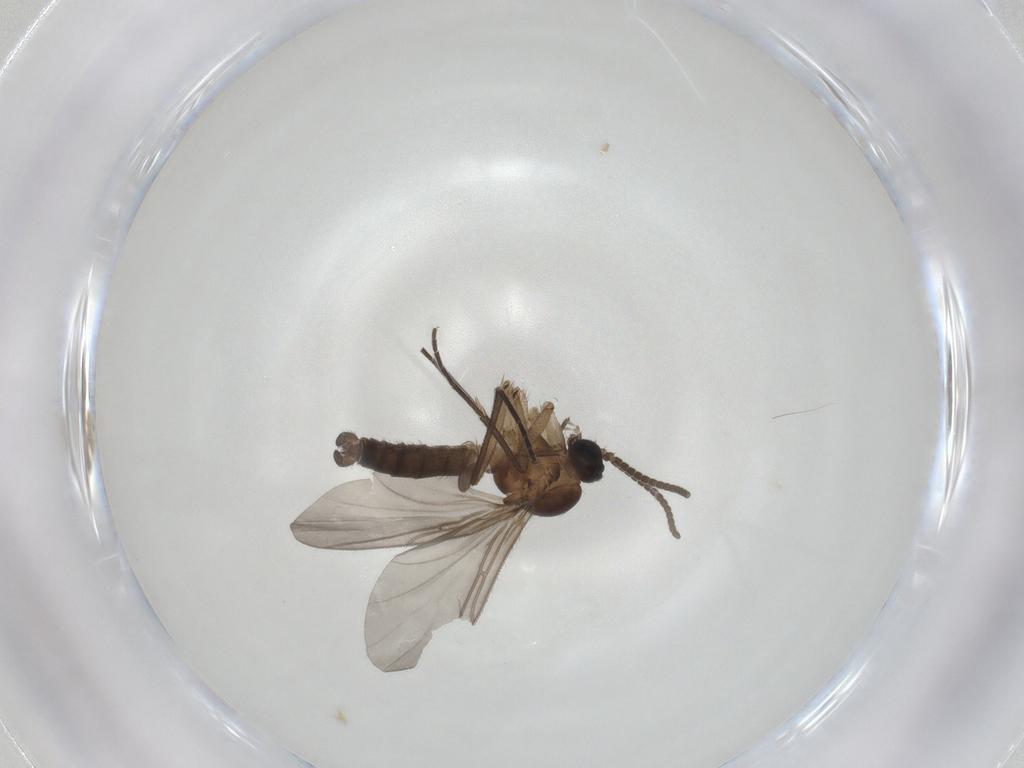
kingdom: Animalia
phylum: Arthropoda
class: Insecta
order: Diptera
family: Sciaridae
